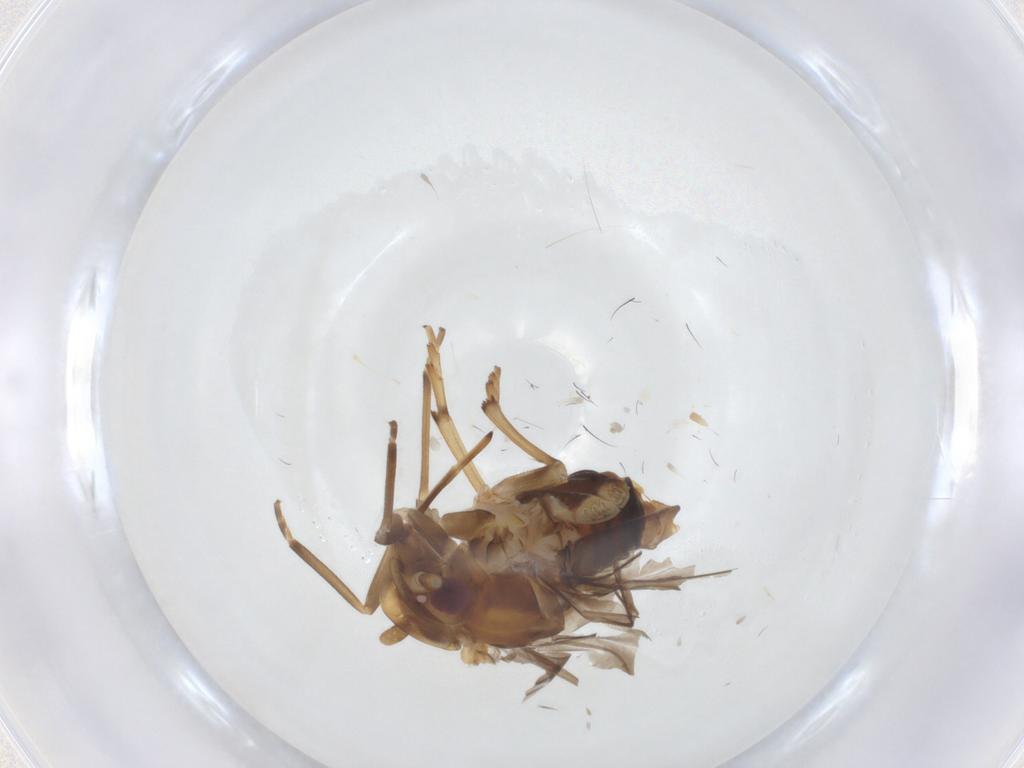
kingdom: Animalia
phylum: Arthropoda
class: Insecta
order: Hemiptera
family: Cixiidae
